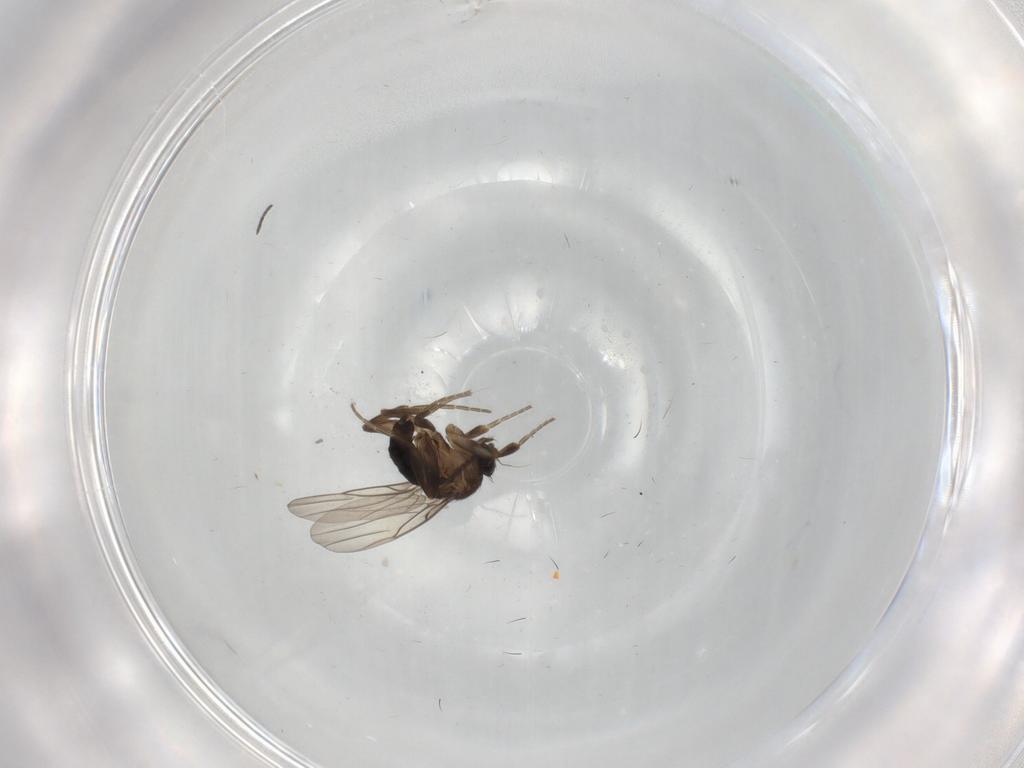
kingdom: Animalia
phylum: Arthropoda
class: Insecta
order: Diptera
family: Sciaridae
